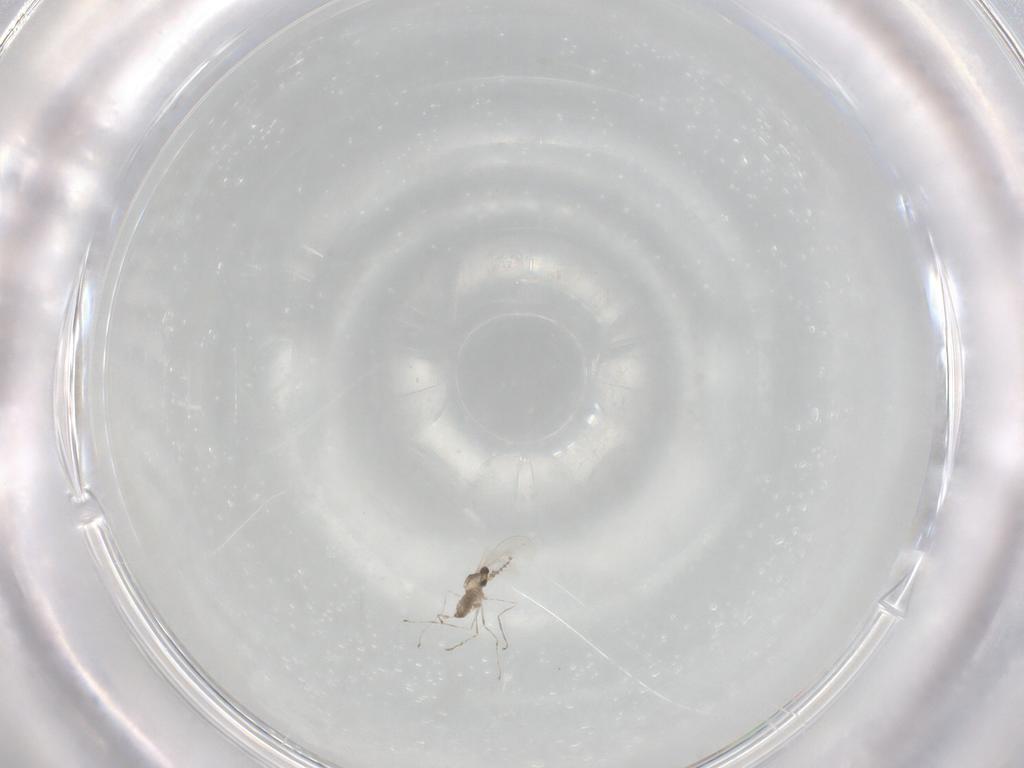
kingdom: Animalia
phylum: Arthropoda
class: Insecta
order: Diptera
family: Cecidomyiidae
